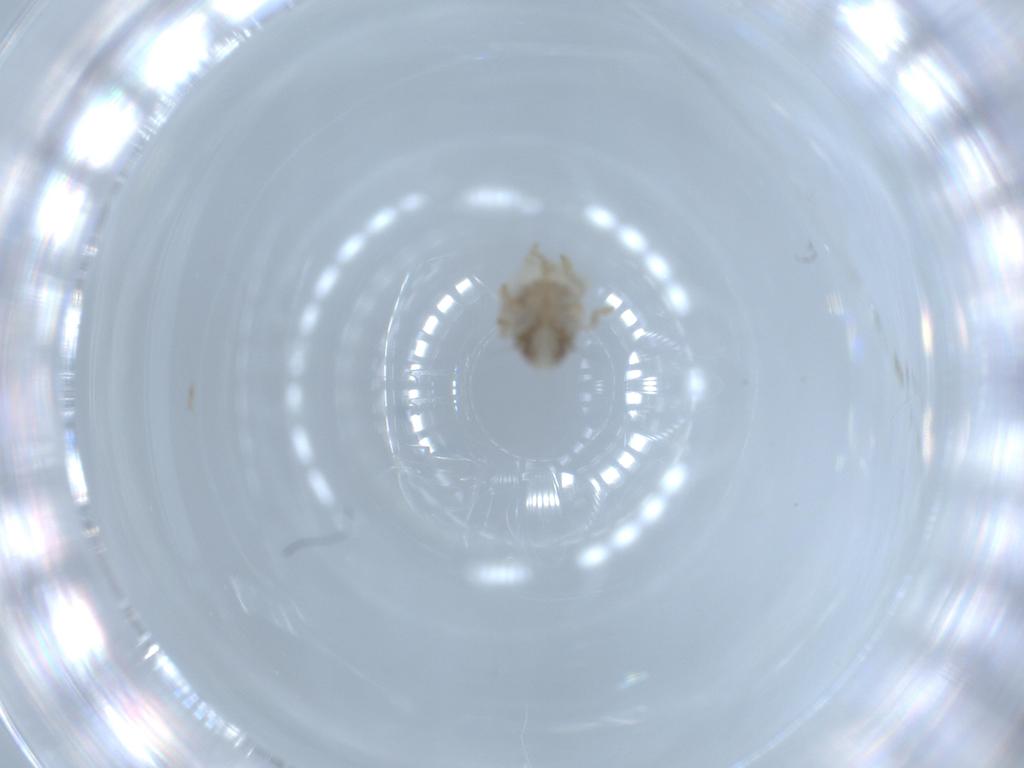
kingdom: Animalia
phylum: Arthropoda
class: Insecta
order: Hemiptera
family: Acanaloniidae
